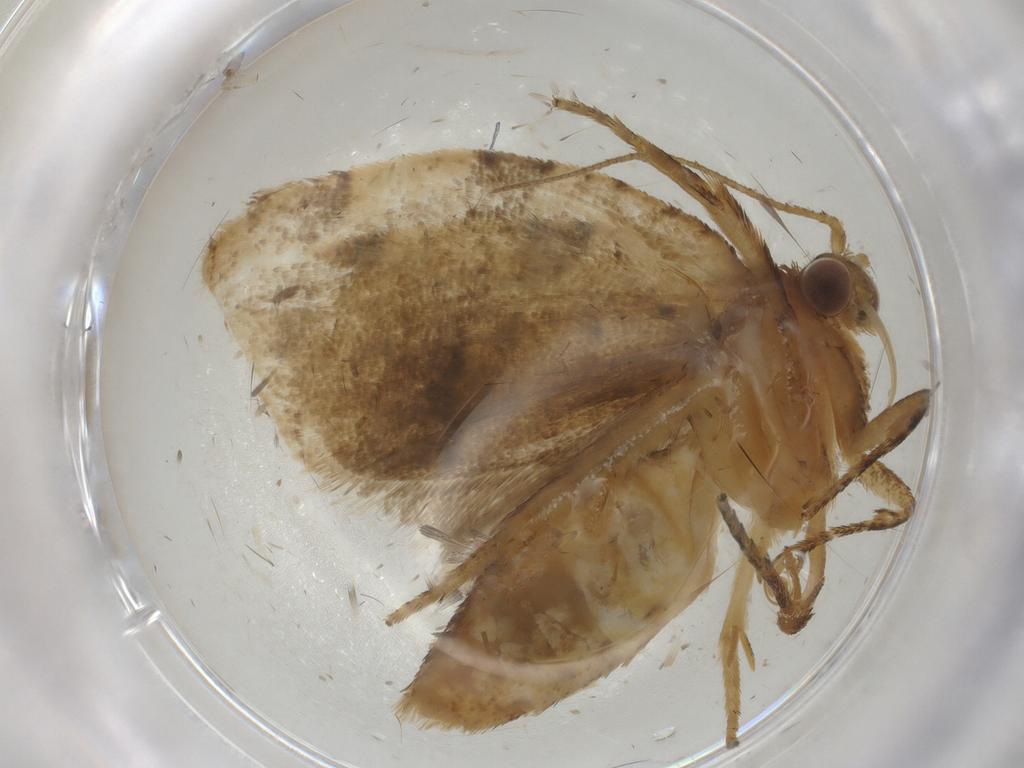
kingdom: Animalia
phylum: Arthropoda
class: Insecta
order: Lepidoptera
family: Tortricidae
